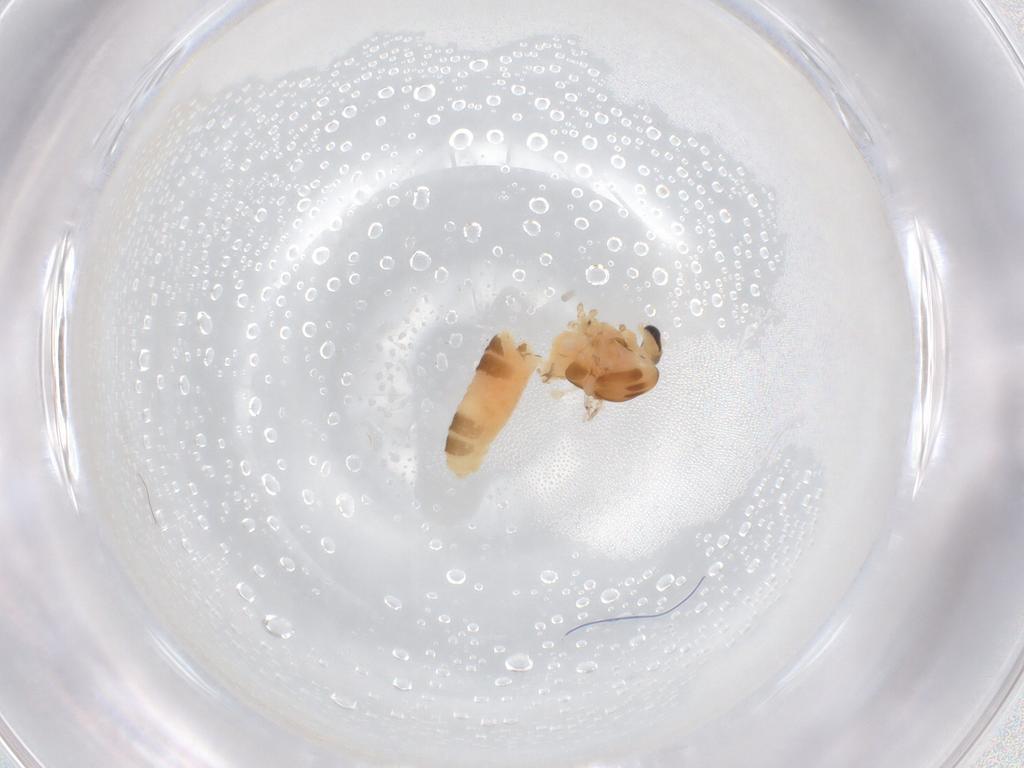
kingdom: Animalia
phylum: Arthropoda
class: Insecta
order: Diptera
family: Chironomidae
